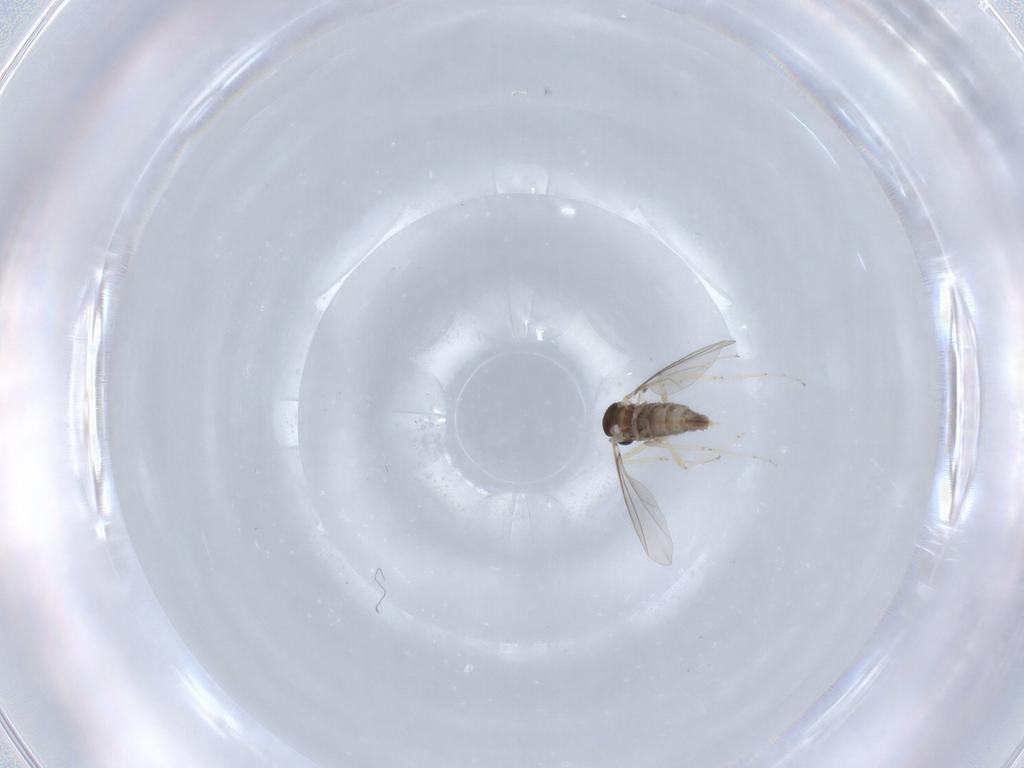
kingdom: Animalia
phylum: Arthropoda
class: Insecta
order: Diptera
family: Cecidomyiidae
